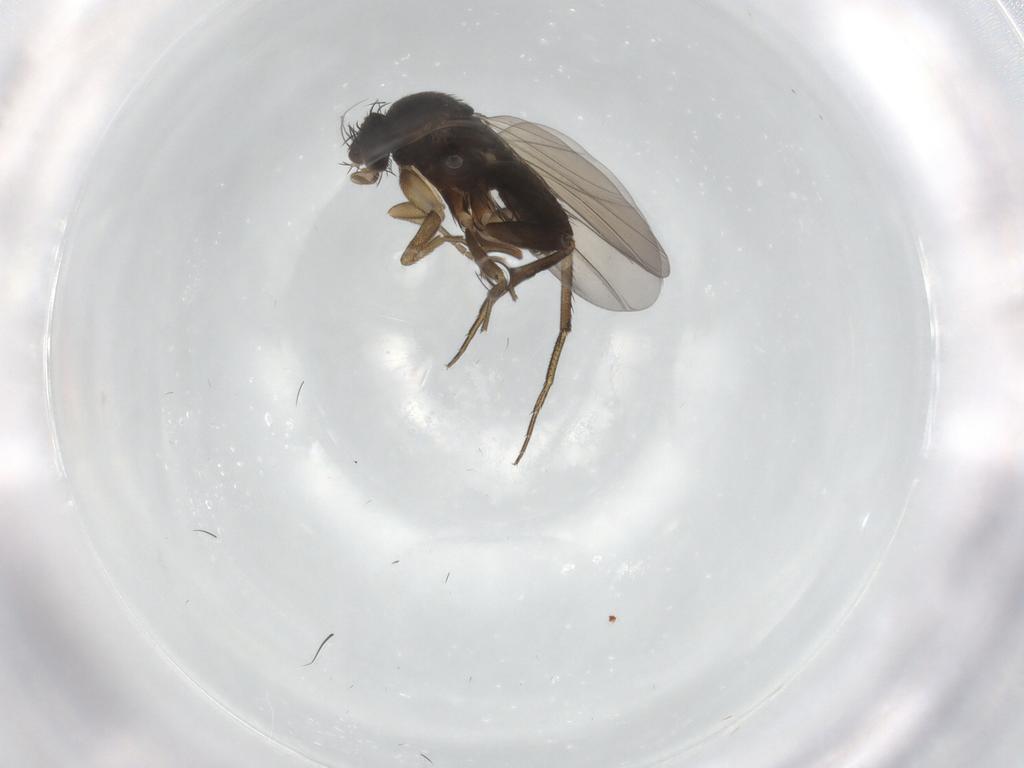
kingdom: Animalia
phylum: Arthropoda
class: Insecta
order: Diptera
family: Phoridae
